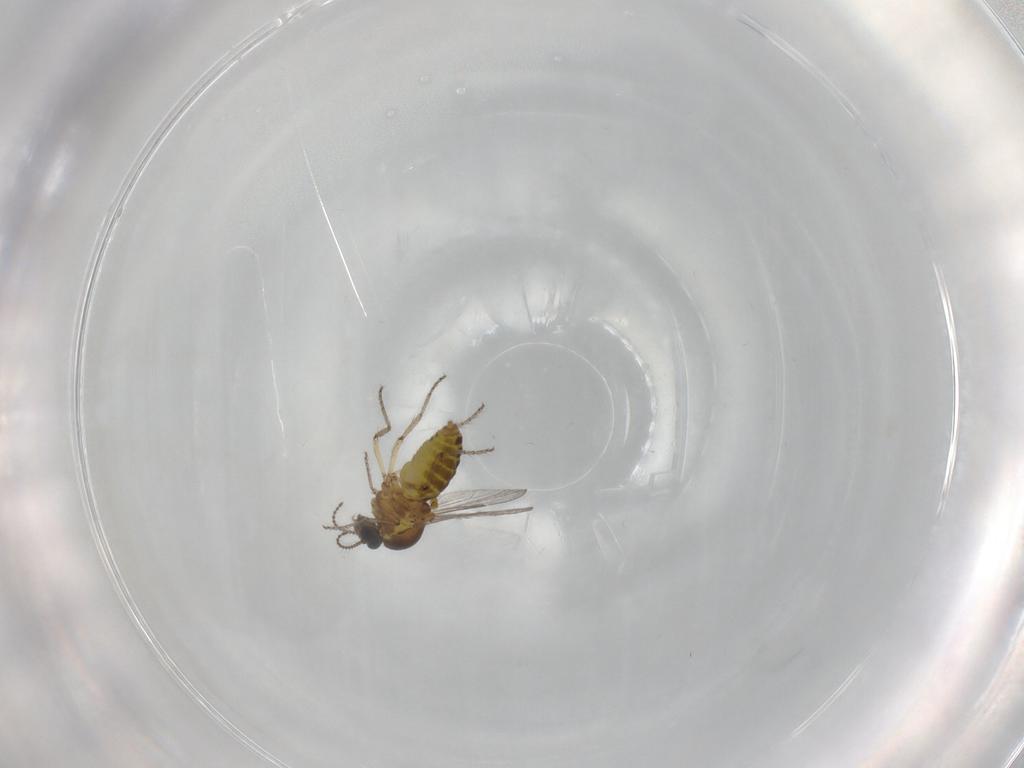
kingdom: Animalia
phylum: Arthropoda
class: Insecta
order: Diptera
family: Ceratopogonidae
